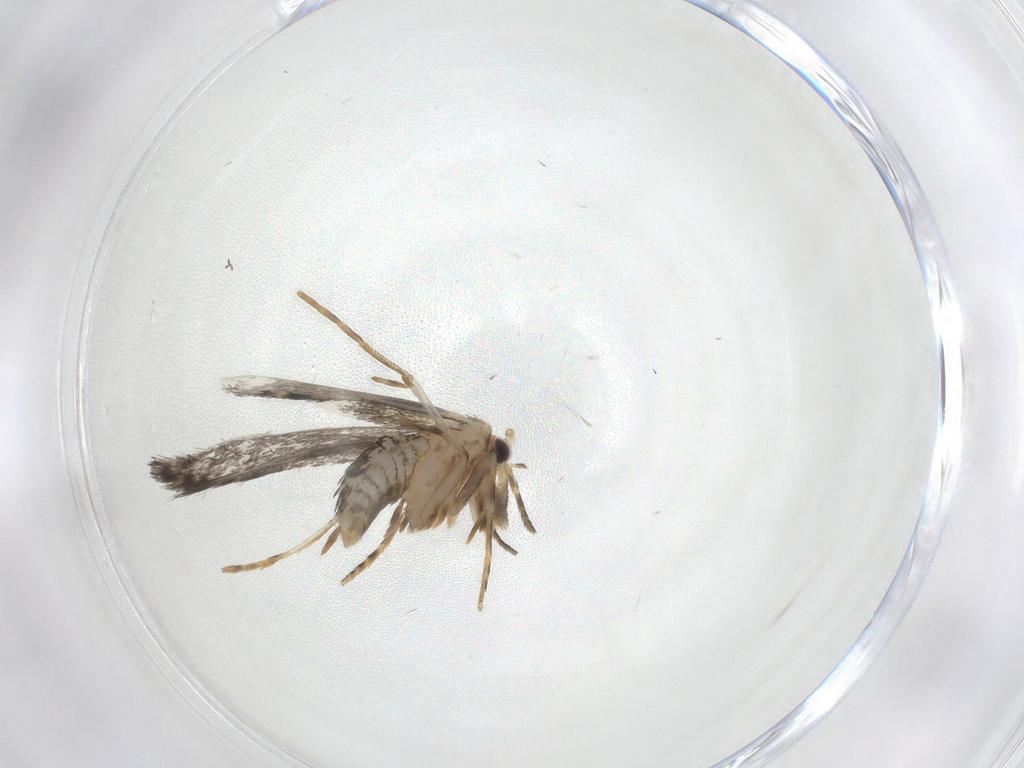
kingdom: Animalia
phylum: Arthropoda
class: Insecta
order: Lepidoptera
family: Tineidae
